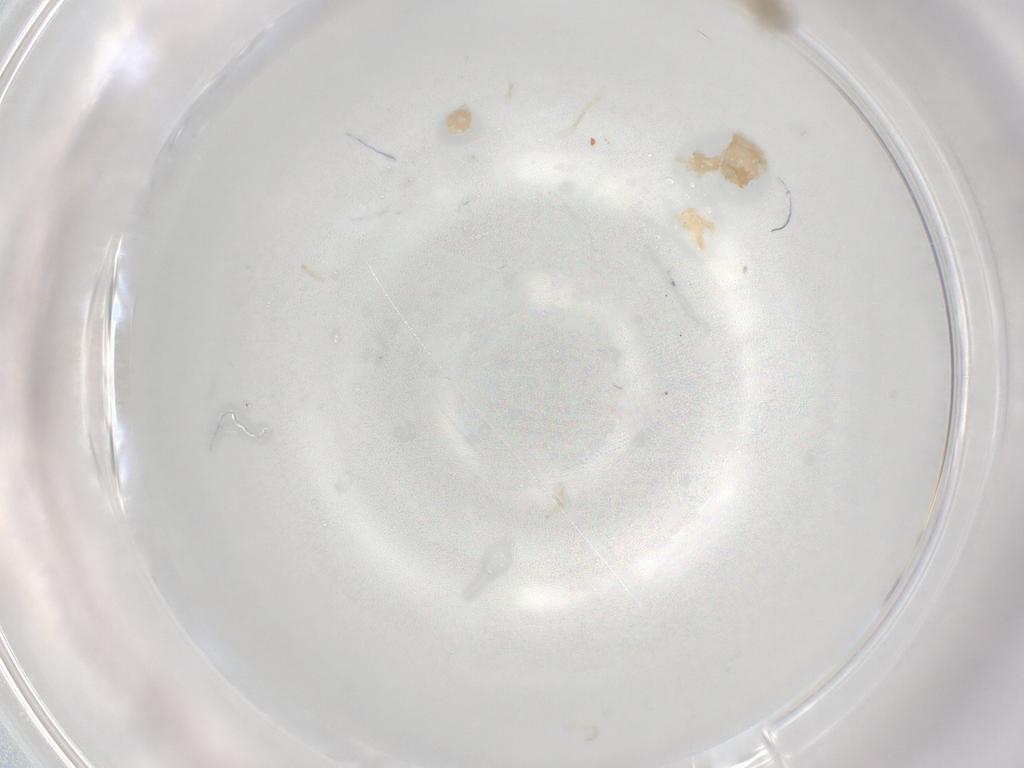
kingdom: Animalia
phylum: Arthropoda
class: Insecta
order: Diptera
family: Chironomidae
